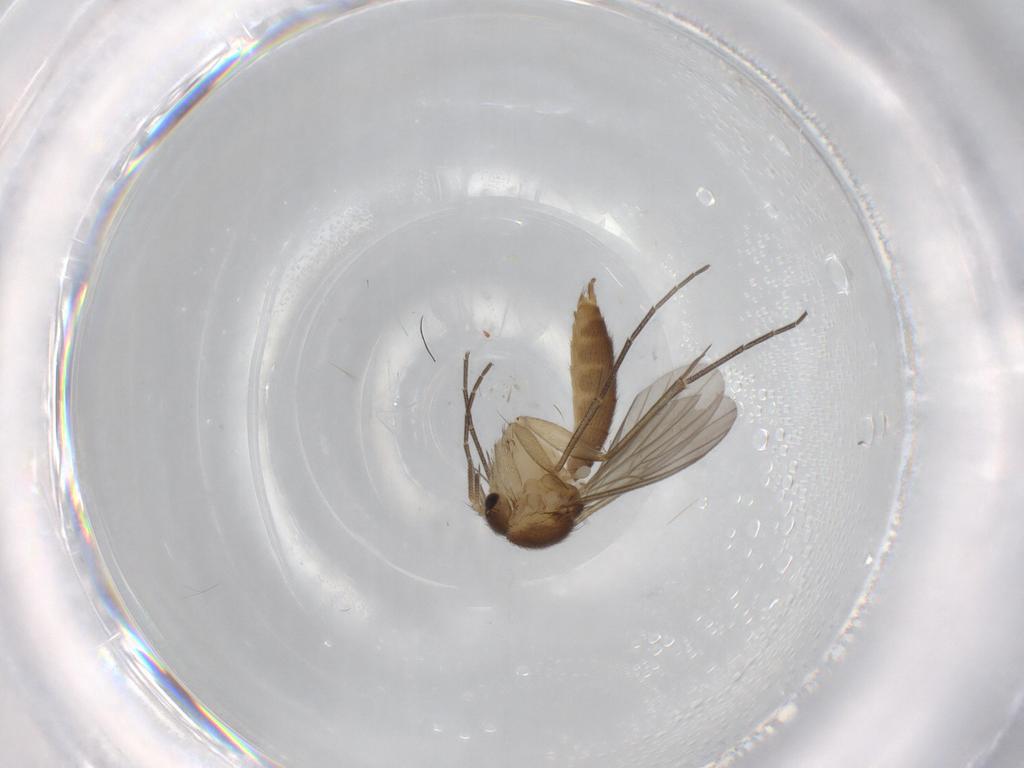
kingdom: Animalia
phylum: Arthropoda
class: Insecta
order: Diptera
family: Mycetophilidae
